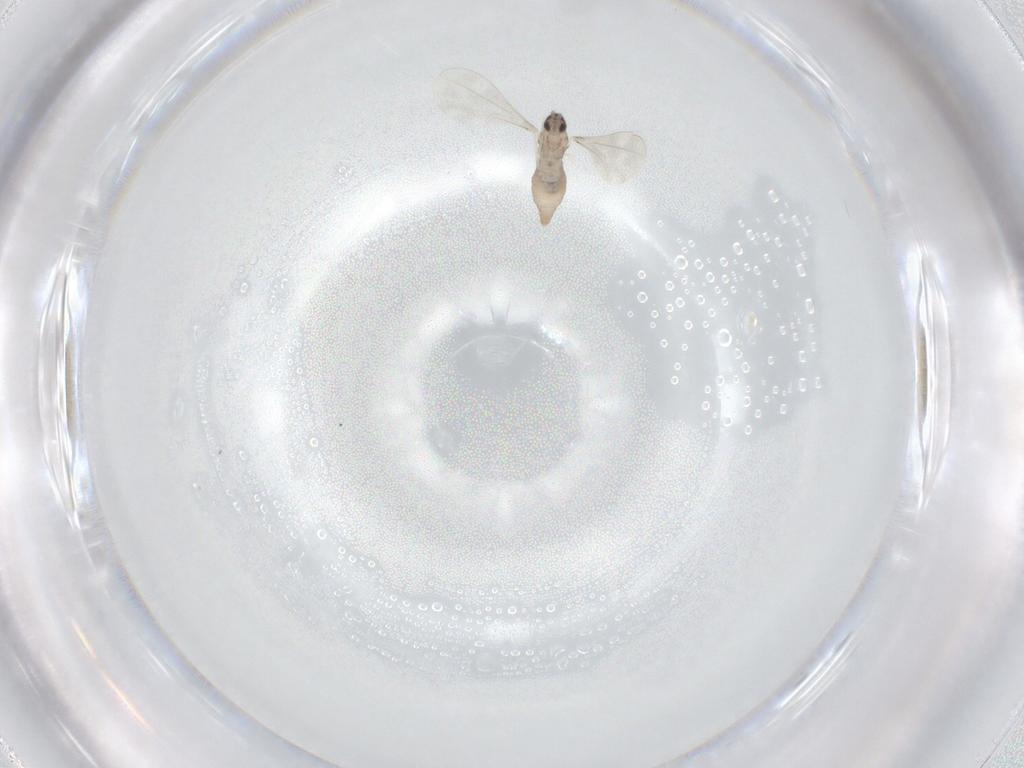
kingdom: Animalia
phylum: Arthropoda
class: Insecta
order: Diptera
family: Cecidomyiidae
